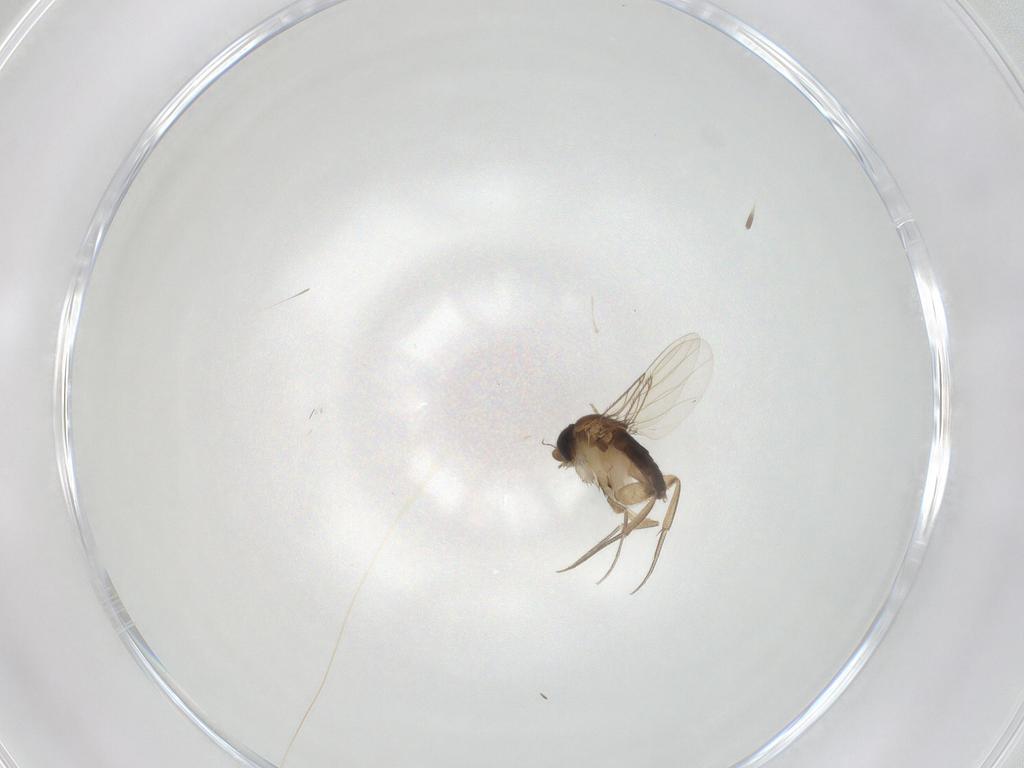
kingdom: Animalia
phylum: Arthropoda
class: Insecta
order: Diptera
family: Cecidomyiidae
